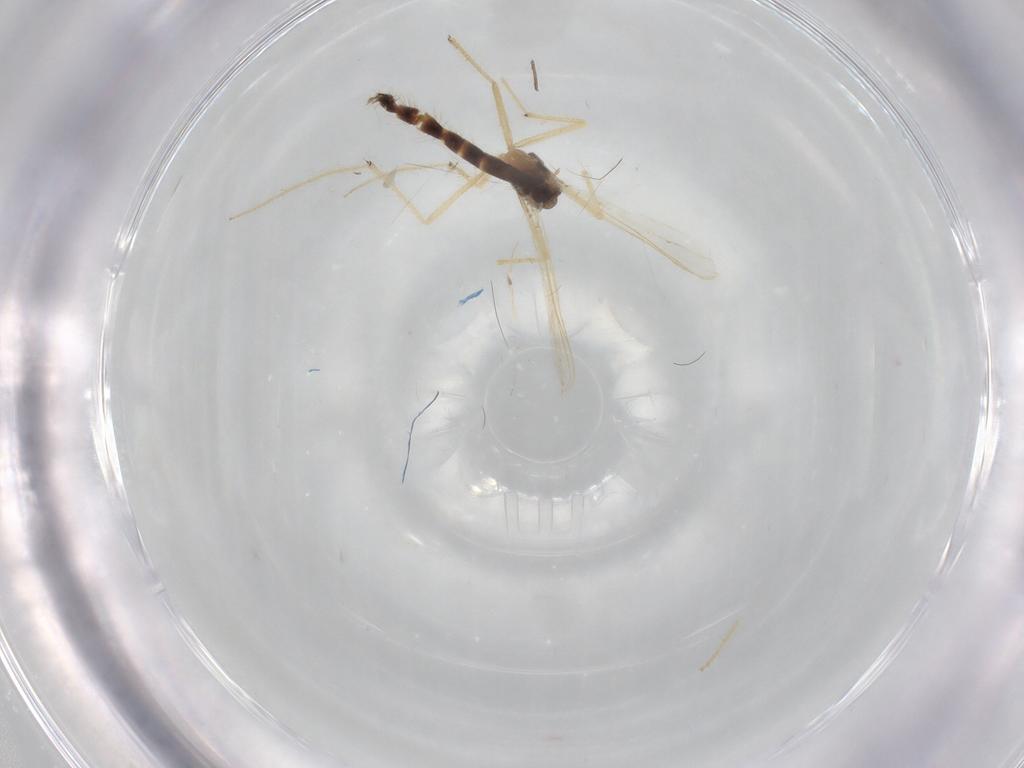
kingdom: Animalia
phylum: Arthropoda
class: Insecta
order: Diptera
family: Chironomidae
